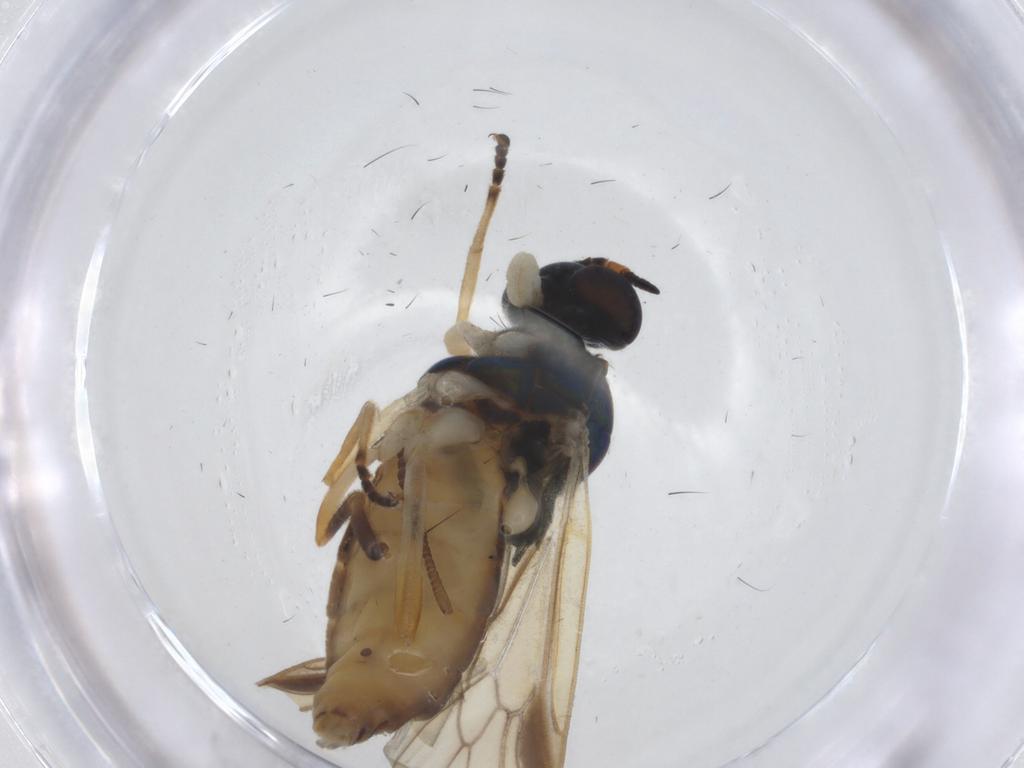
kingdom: Animalia
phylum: Arthropoda
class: Insecta
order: Diptera
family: Stratiomyidae
